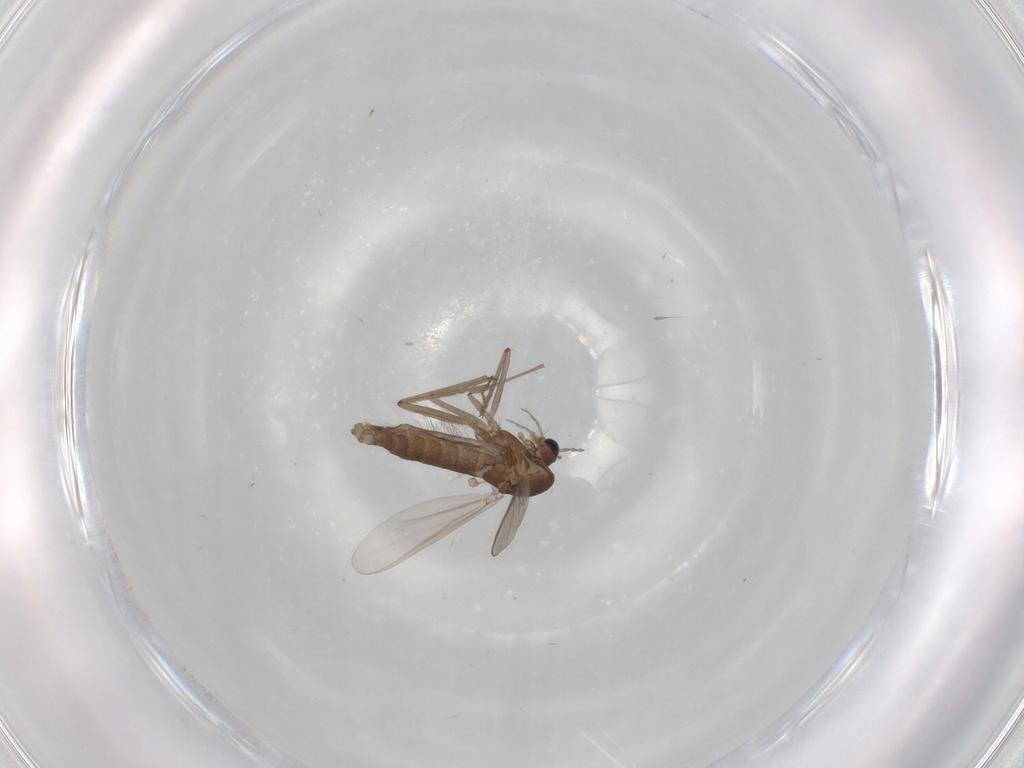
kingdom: Animalia
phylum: Arthropoda
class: Insecta
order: Diptera
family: Chironomidae
